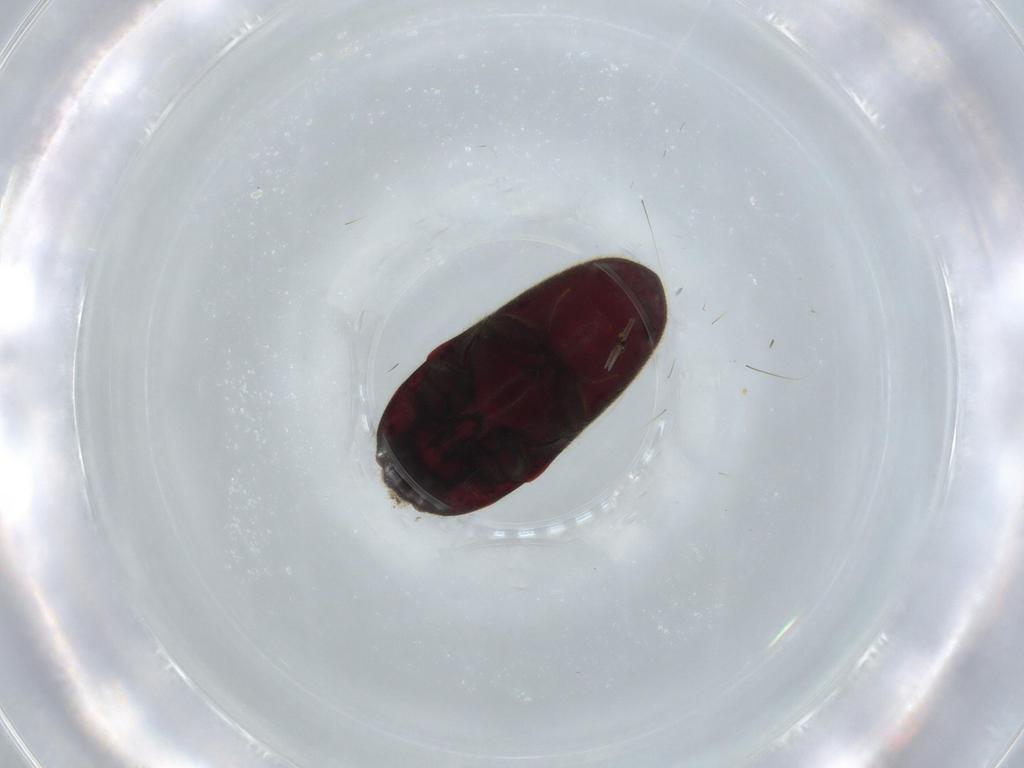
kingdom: Animalia
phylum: Arthropoda
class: Insecta
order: Coleoptera
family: Throscidae
